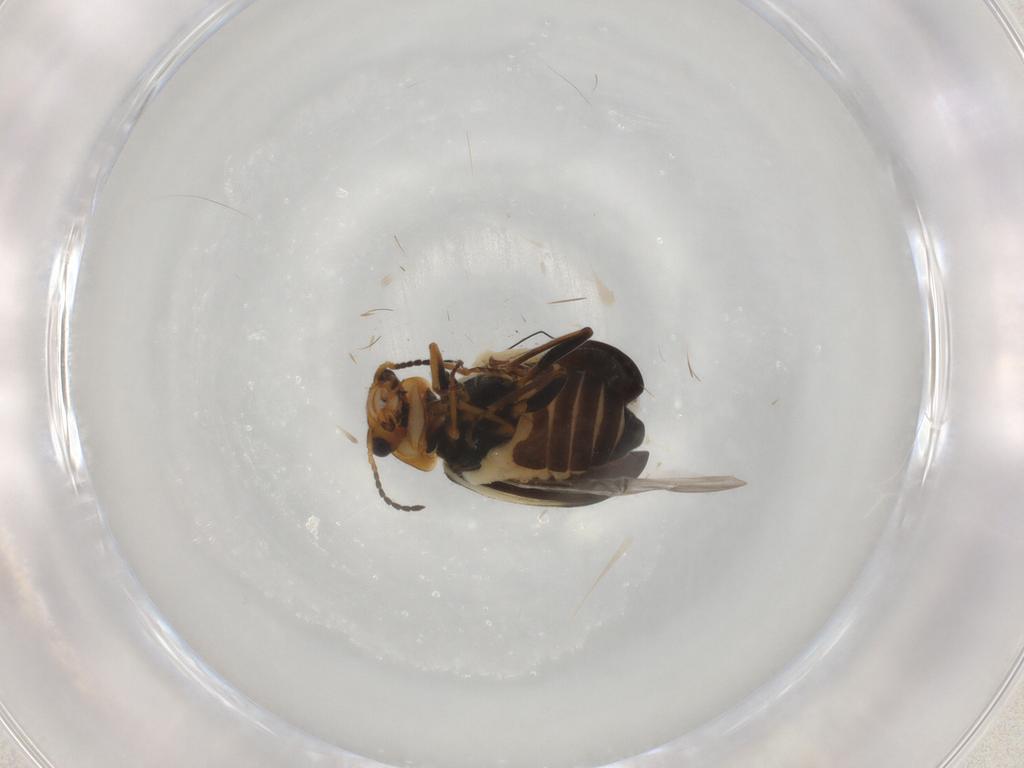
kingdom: Animalia
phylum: Arthropoda
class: Insecta
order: Coleoptera
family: Melyridae
